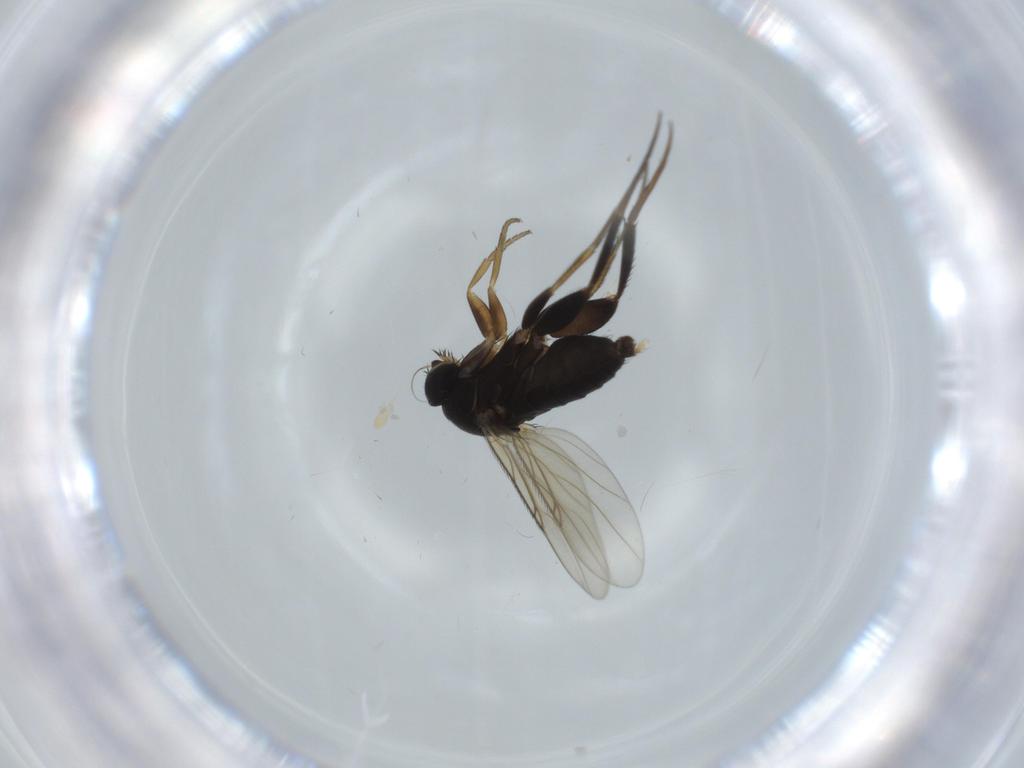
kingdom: Animalia
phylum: Arthropoda
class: Insecta
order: Diptera
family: Phoridae
